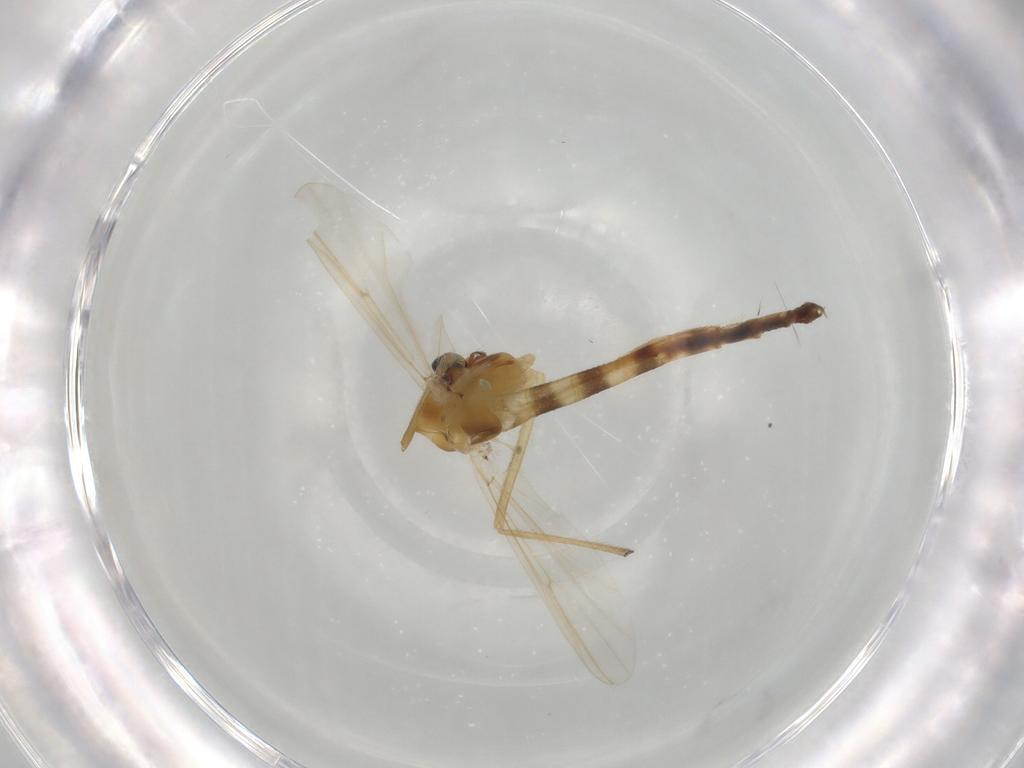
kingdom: Animalia
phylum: Arthropoda
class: Insecta
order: Diptera
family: Chironomidae
